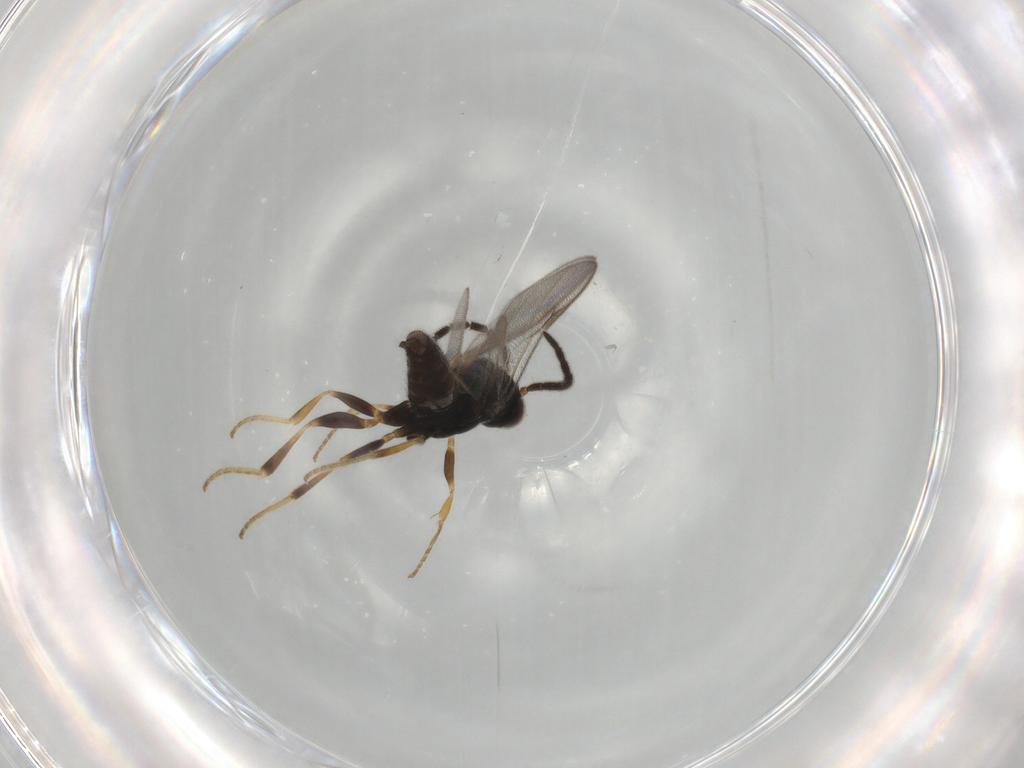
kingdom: Animalia
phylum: Arthropoda
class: Insecta
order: Hymenoptera
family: Dryinidae
